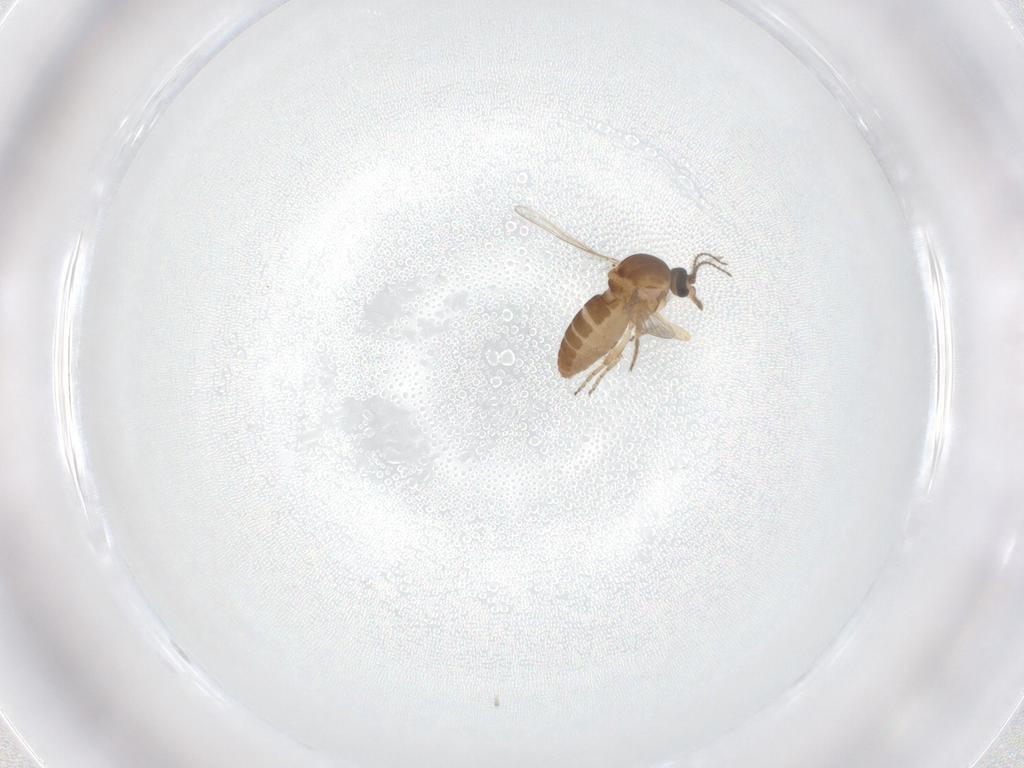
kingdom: Animalia
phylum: Arthropoda
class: Insecta
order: Diptera
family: Ceratopogonidae
